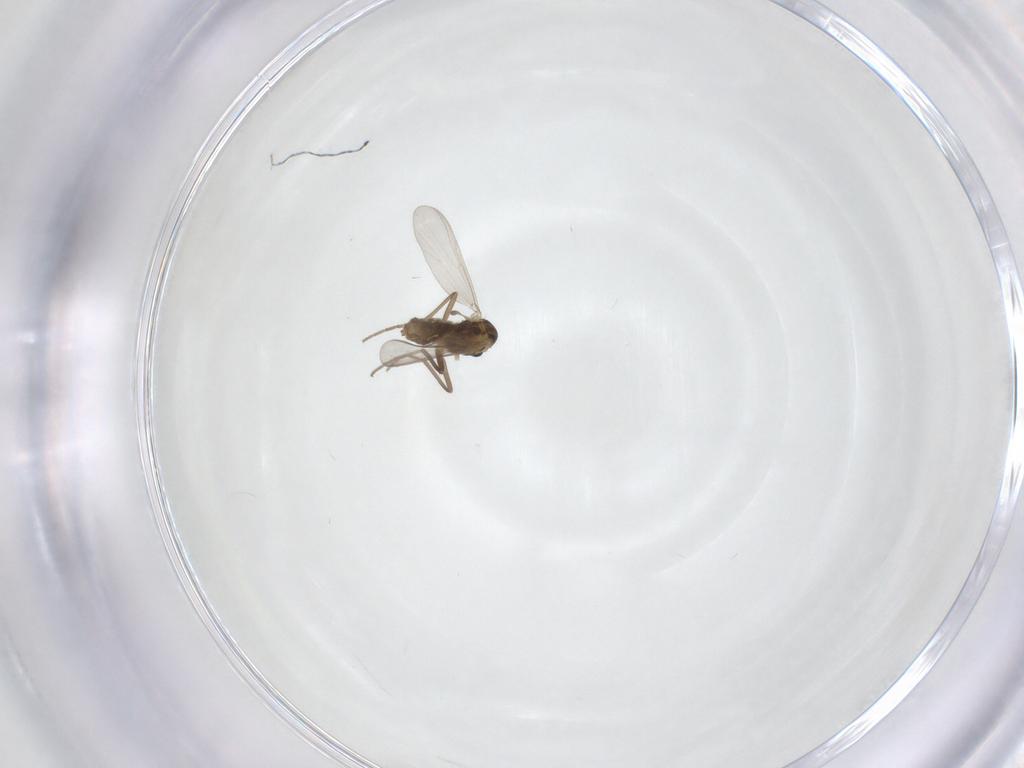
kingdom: Animalia
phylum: Arthropoda
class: Insecta
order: Diptera
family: Chironomidae
